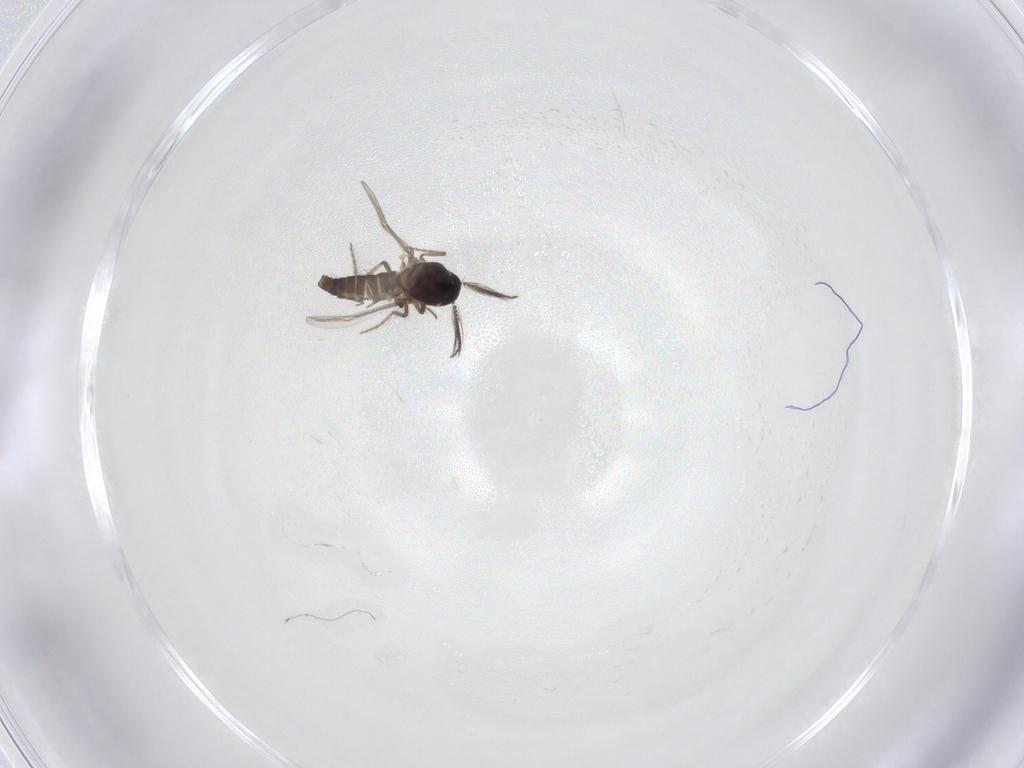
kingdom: Animalia
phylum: Arthropoda
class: Insecta
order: Diptera
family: Ceratopogonidae
